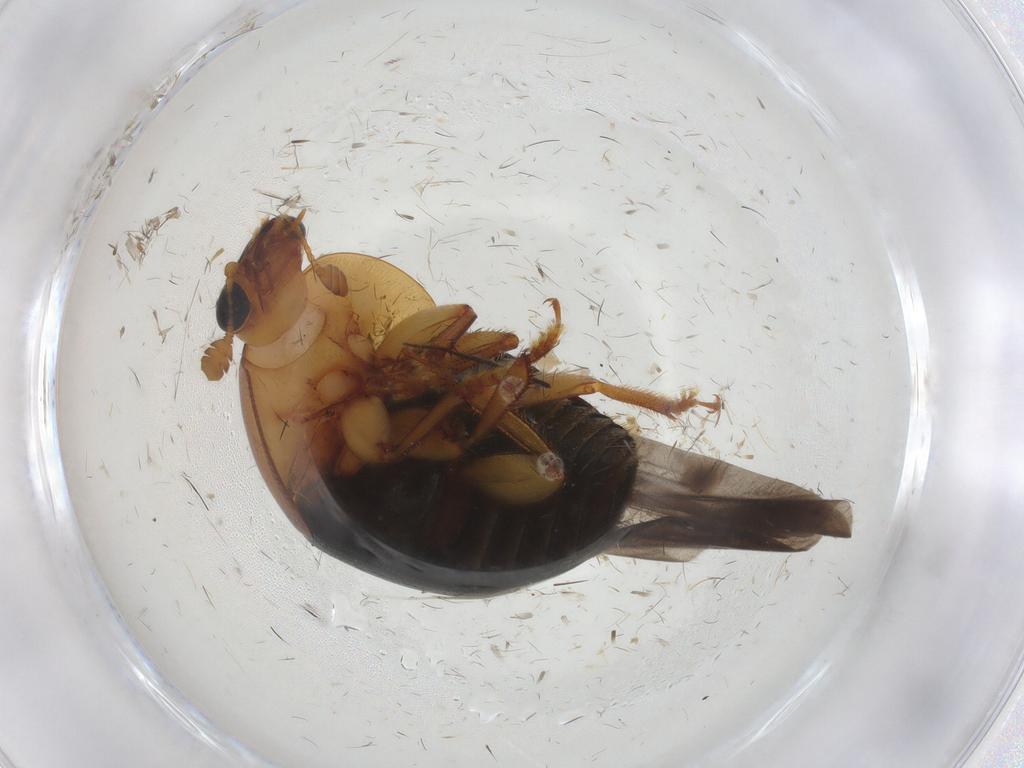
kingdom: Animalia
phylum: Arthropoda
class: Insecta
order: Coleoptera
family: Nitidulidae
